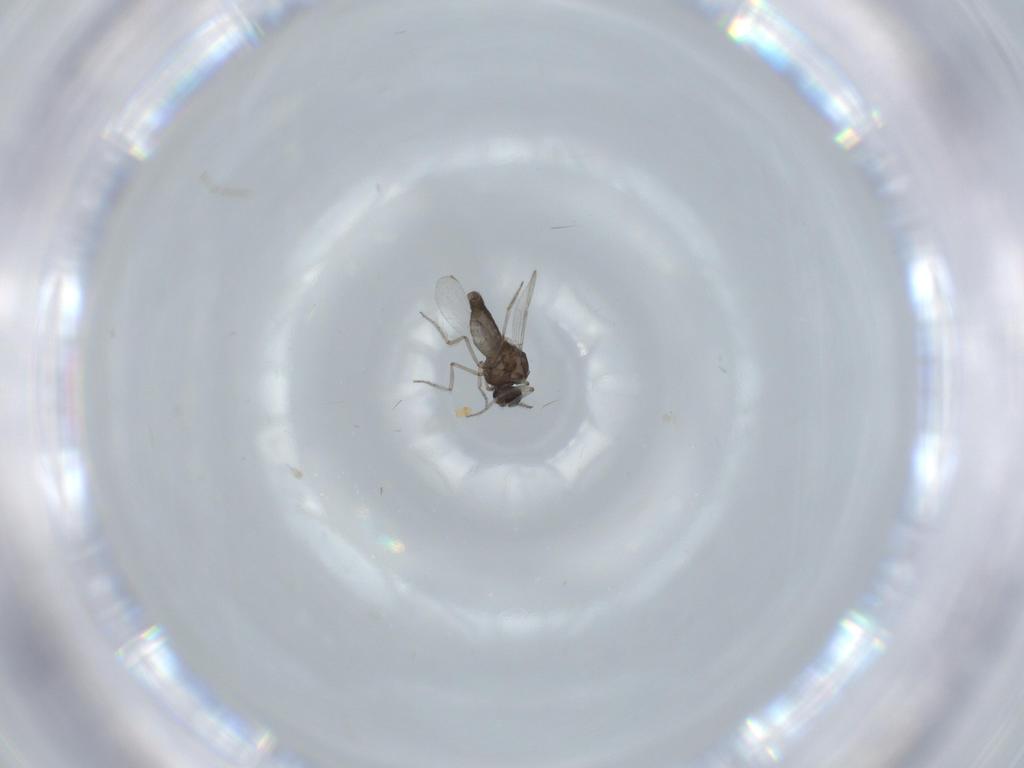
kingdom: Animalia
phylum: Arthropoda
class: Insecta
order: Diptera
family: Ceratopogonidae
